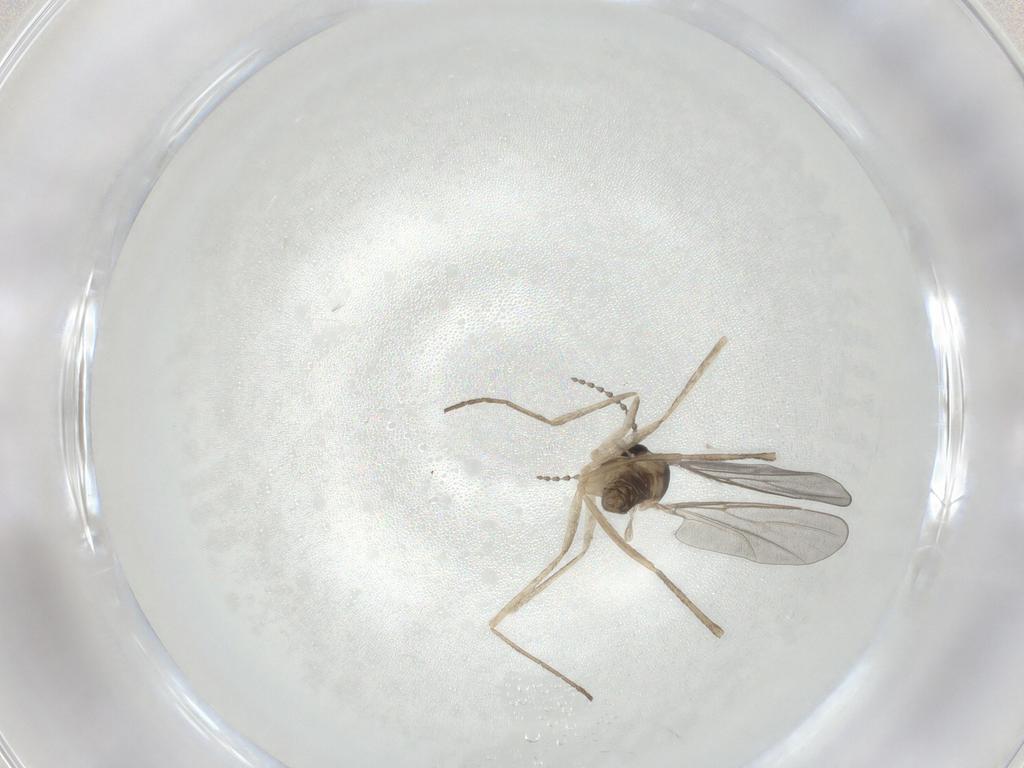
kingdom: Animalia
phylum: Arthropoda
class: Insecta
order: Diptera
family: Cecidomyiidae
